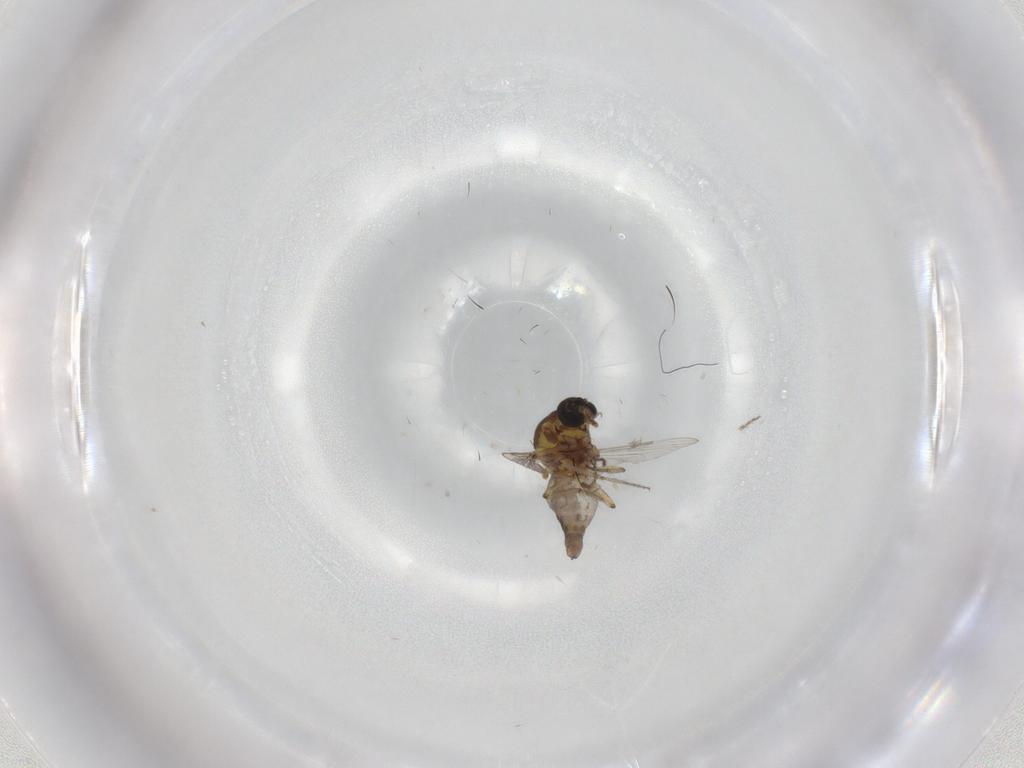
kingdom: Animalia
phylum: Arthropoda
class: Insecta
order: Diptera
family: Ceratopogonidae
